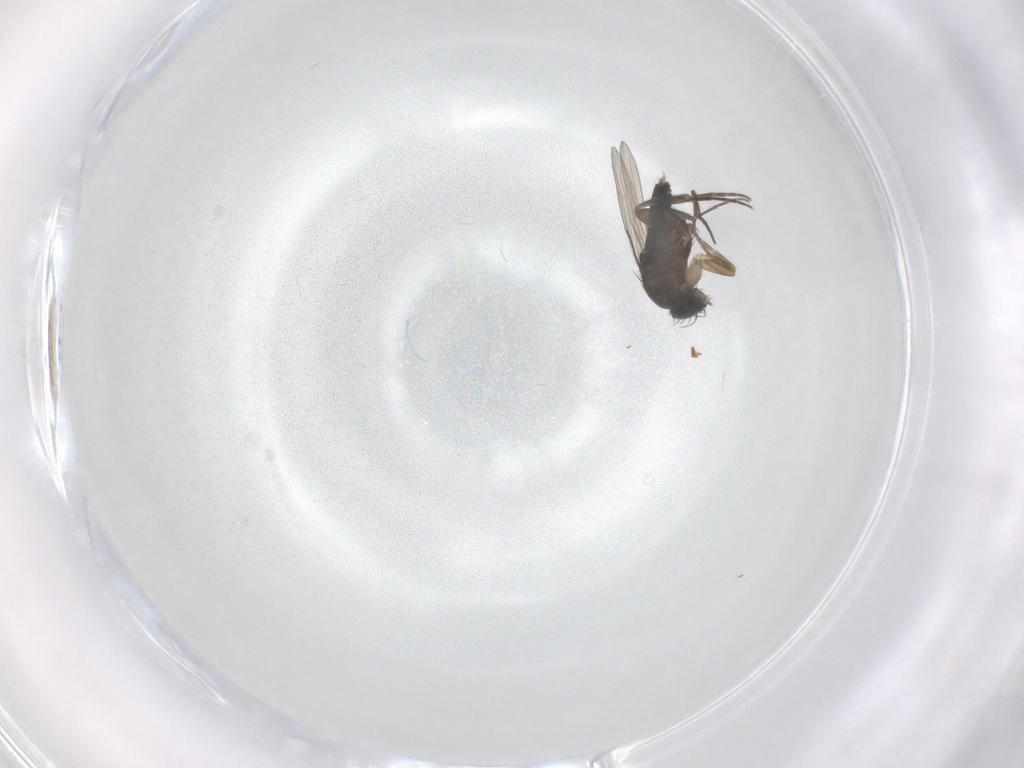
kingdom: Animalia
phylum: Arthropoda
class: Insecta
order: Diptera
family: Phoridae
